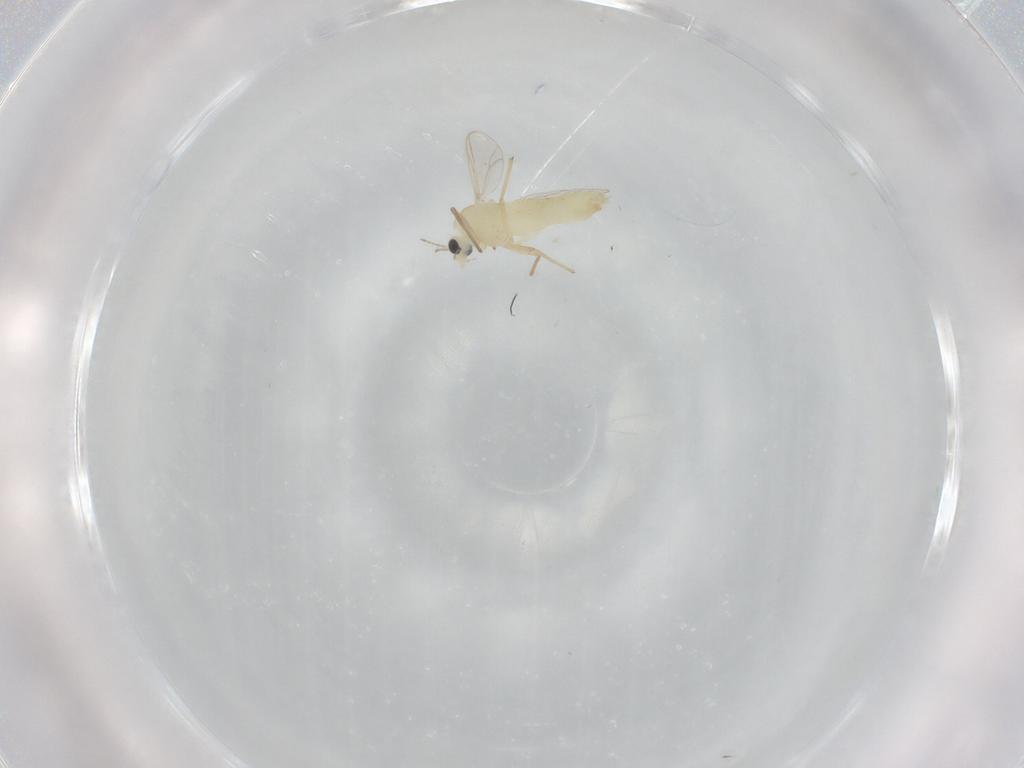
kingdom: Animalia
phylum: Arthropoda
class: Insecta
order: Diptera
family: Chironomidae
